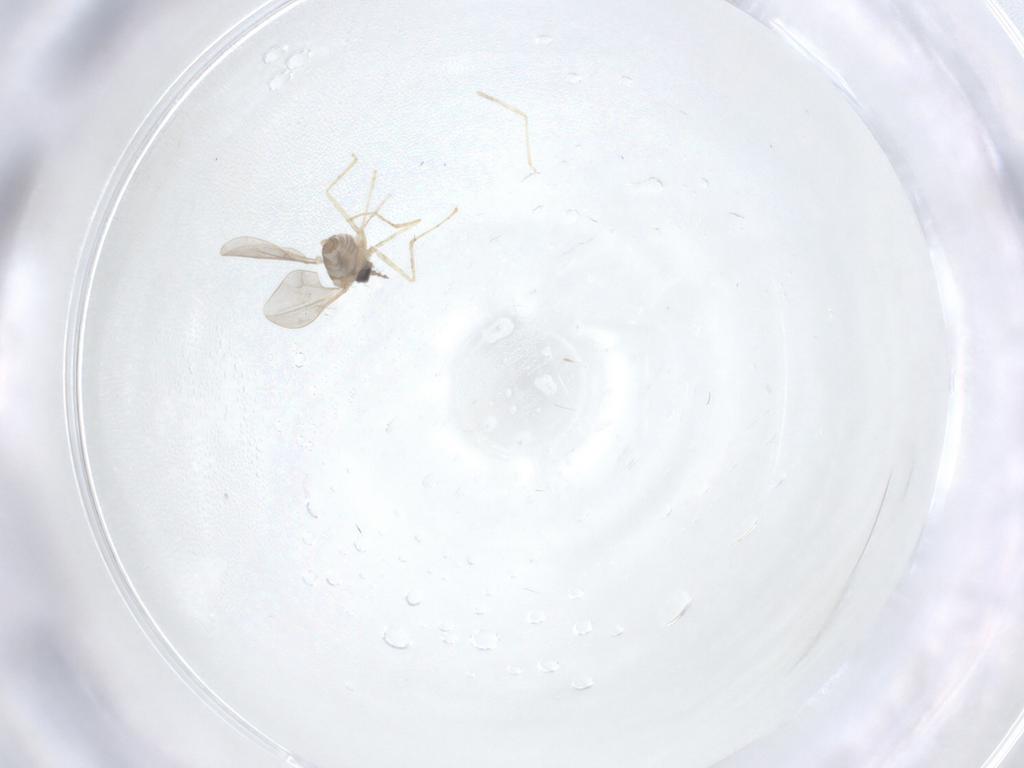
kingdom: Animalia
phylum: Arthropoda
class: Insecta
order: Diptera
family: Cecidomyiidae
